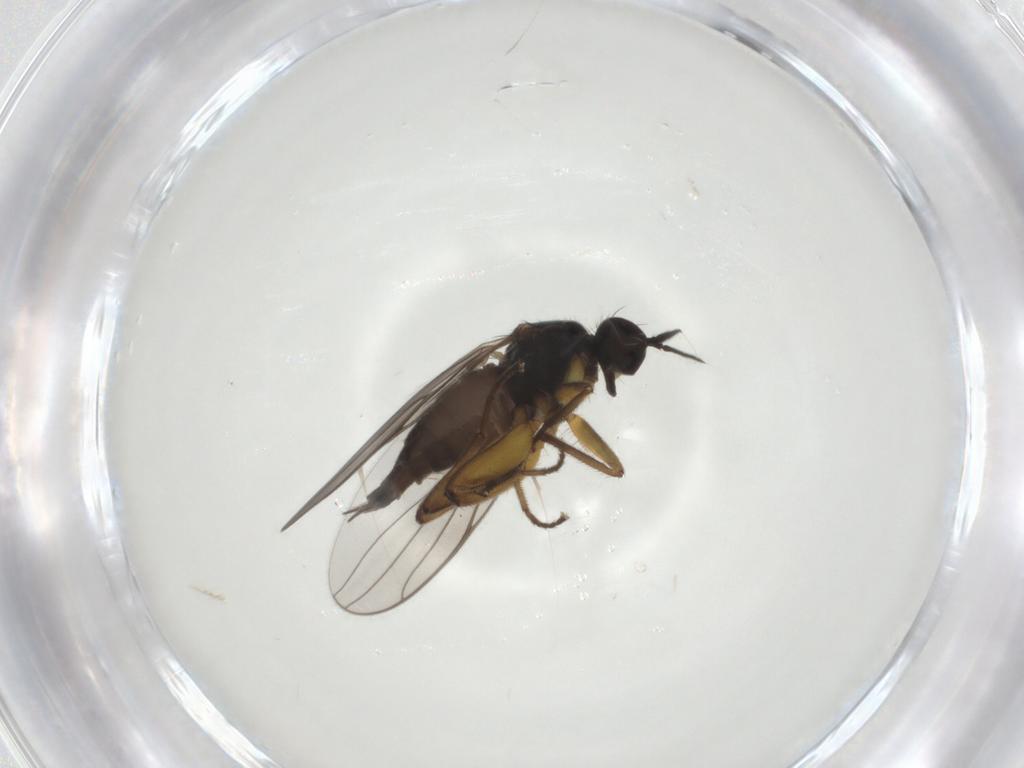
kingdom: Animalia
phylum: Arthropoda
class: Insecta
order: Diptera
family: Hybotidae
